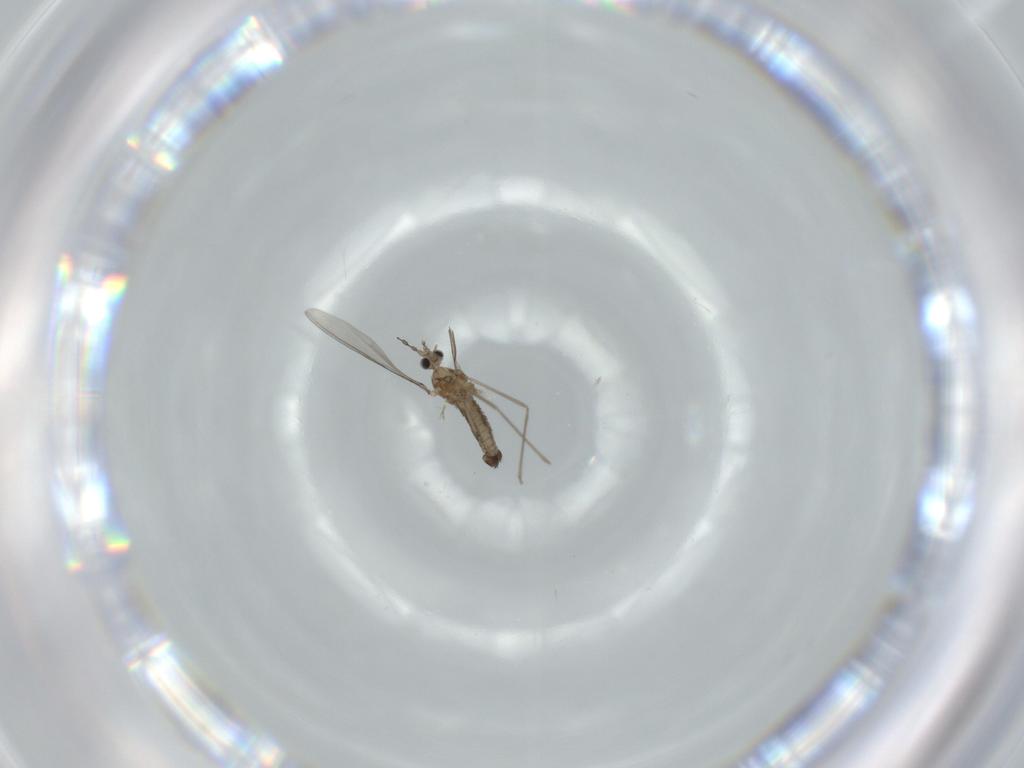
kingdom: Animalia
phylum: Arthropoda
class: Insecta
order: Diptera
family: Cecidomyiidae
